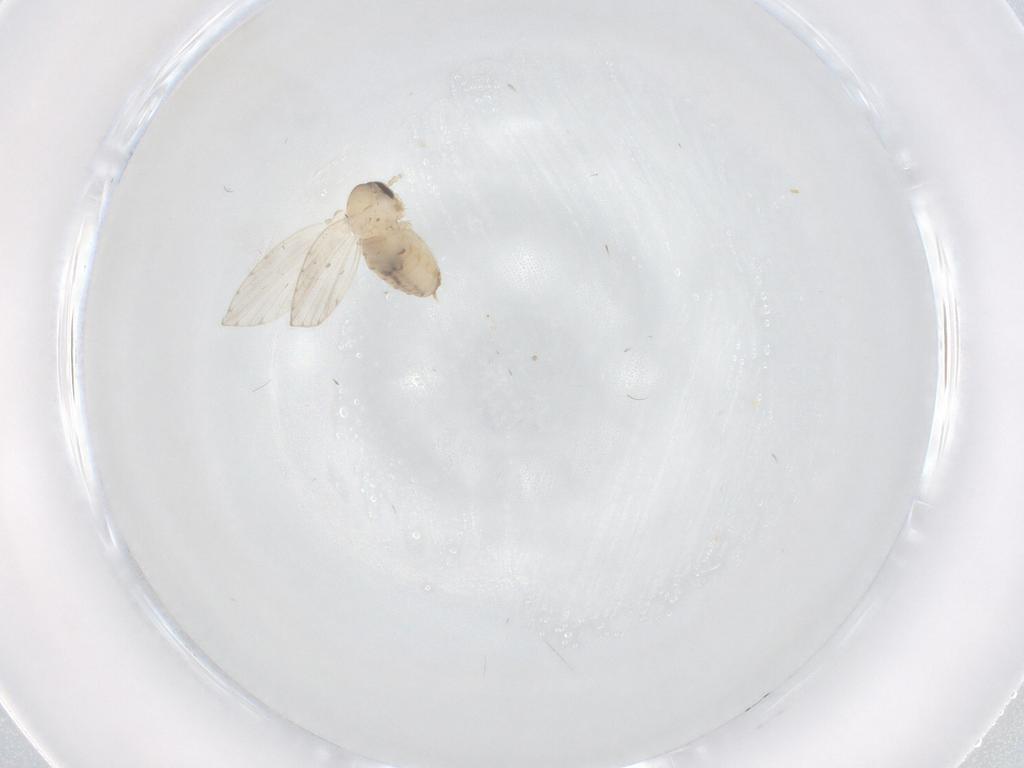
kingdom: Animalia
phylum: Arthropoda
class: Insecta
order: Diptera
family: Psychodidae
